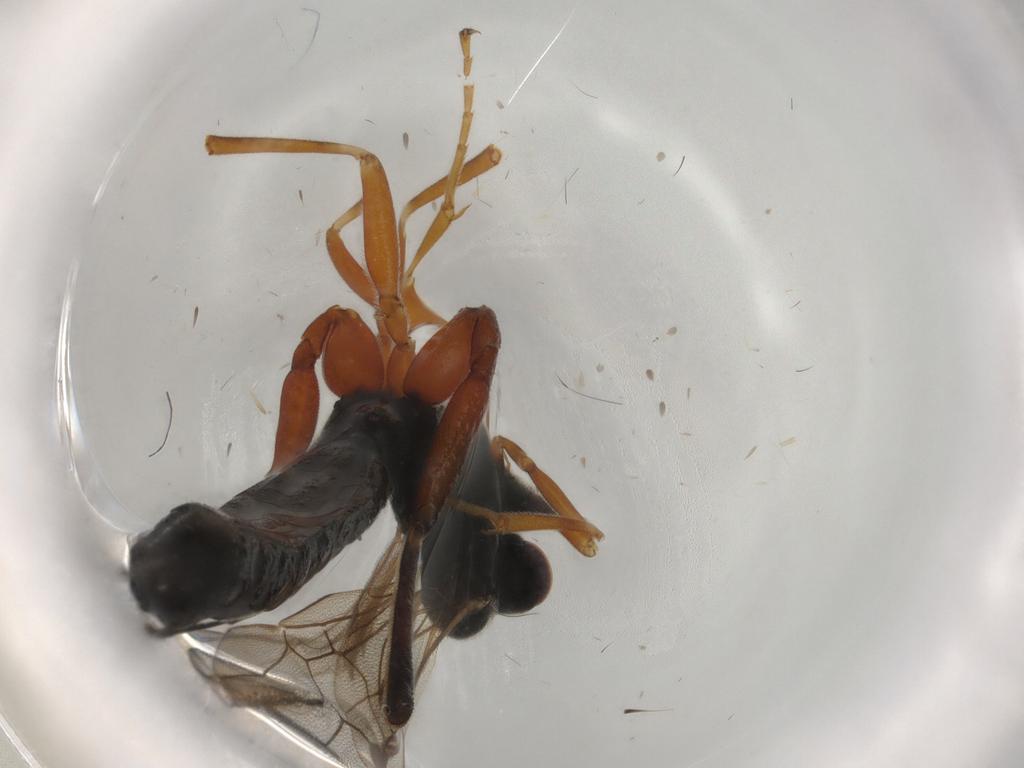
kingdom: Animalia
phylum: Arthropoda
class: Insecta
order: Hymenoptera
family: Ichneumonidae
